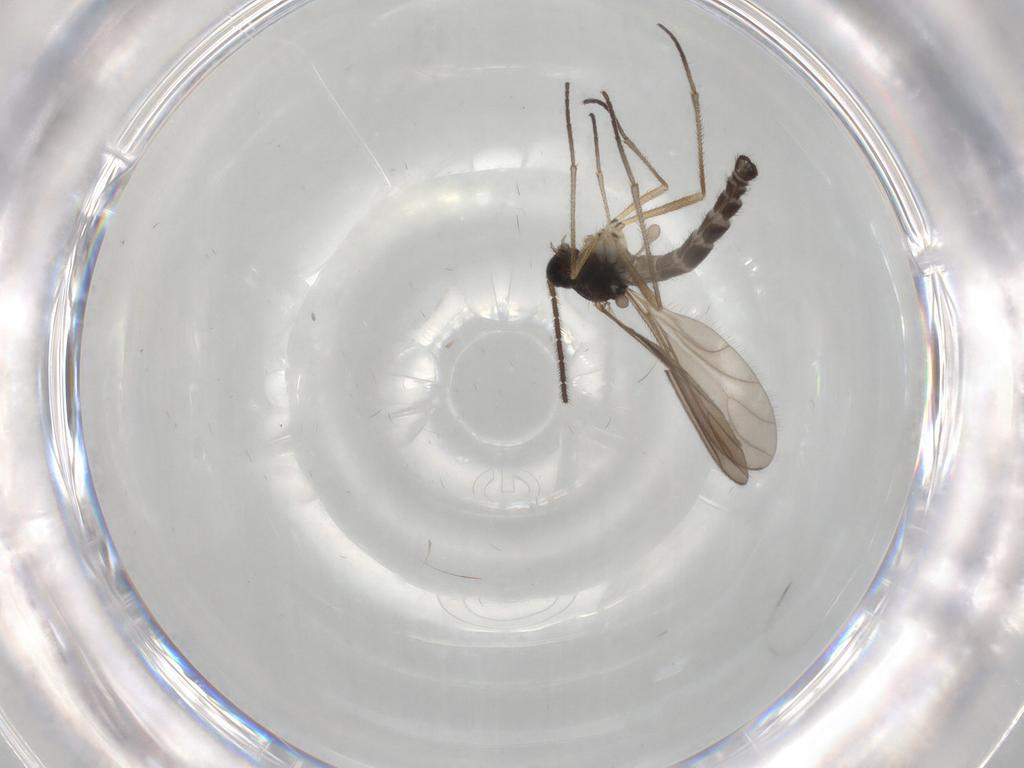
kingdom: Animalia
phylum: Arthropoda
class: Insecta
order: Diptera
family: Sciaridae
